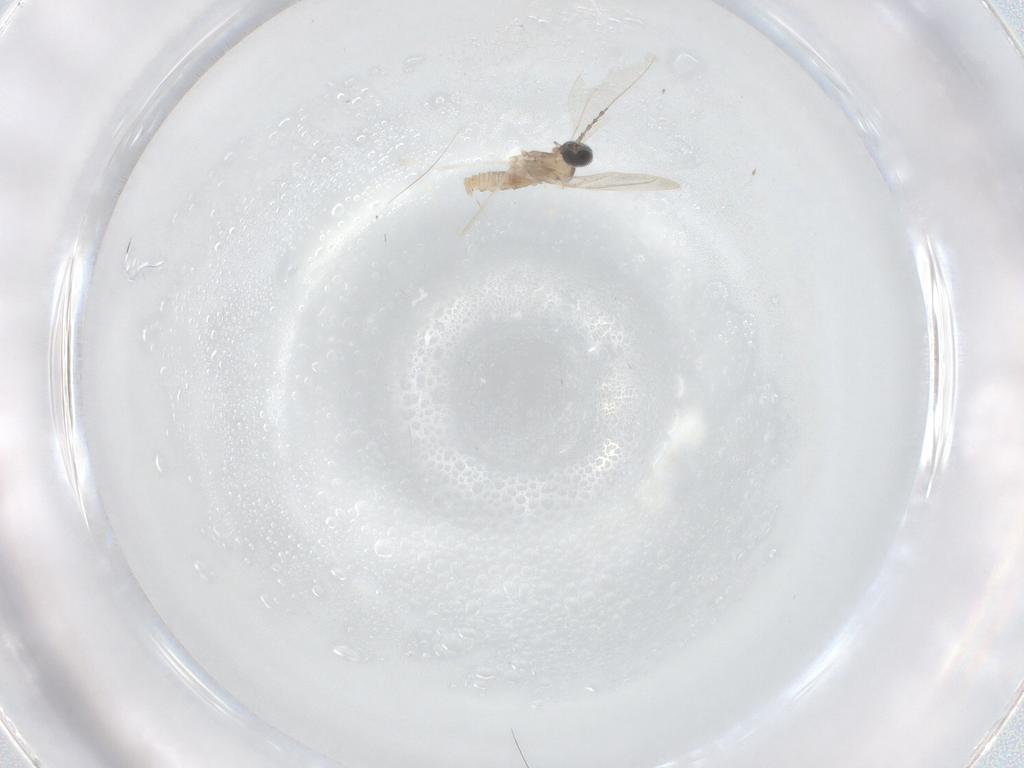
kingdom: Animalia
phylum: Arthropoda
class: Insecta
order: Diptera
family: Cecidomyiidae
